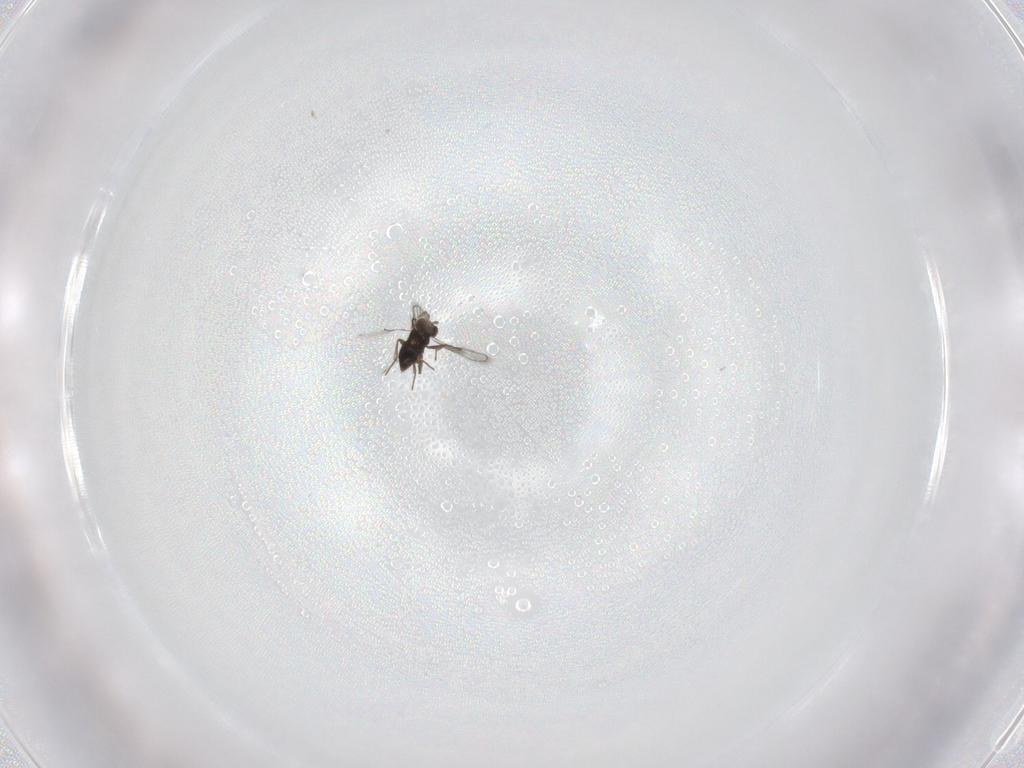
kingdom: Animalia
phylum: Arthropoda
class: Insecta
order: Hymenoptera
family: Trichogrammatidae
